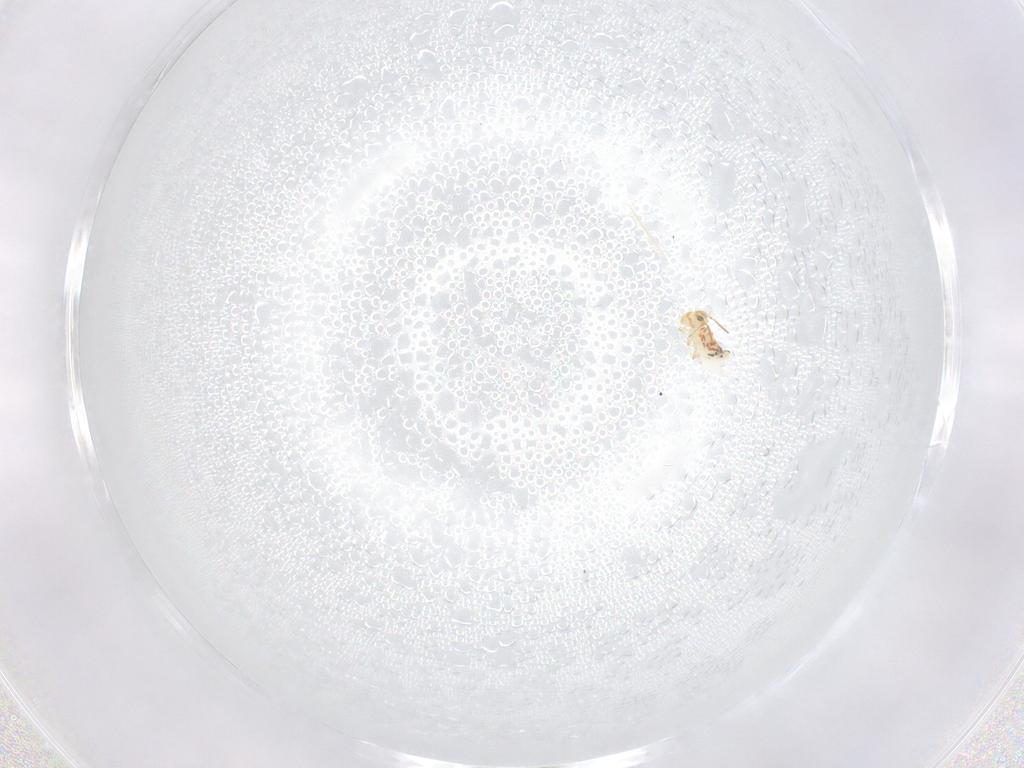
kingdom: Animalia
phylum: Arthropoda
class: Collembola
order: Symphypleona
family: Bourletiellidae
